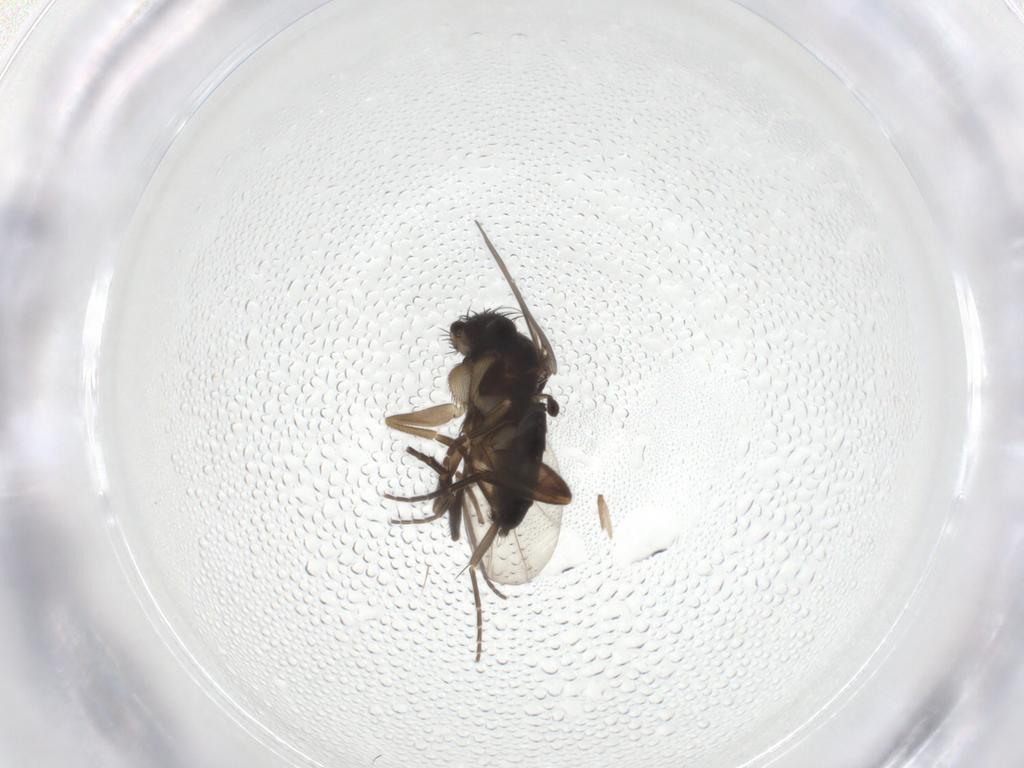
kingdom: Animalia
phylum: Arthropoda
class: Insecta
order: Diptera
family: Phoridae
